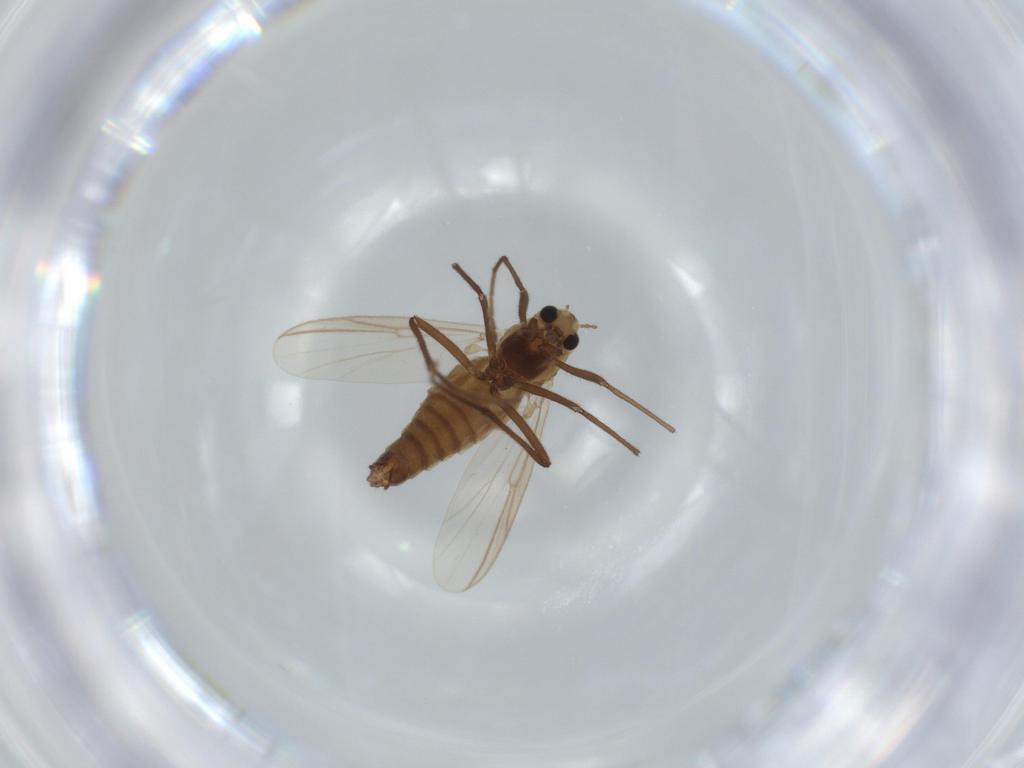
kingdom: Animalia
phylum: Arthropoda
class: Insecta
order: Diptera
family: Chironomidae
